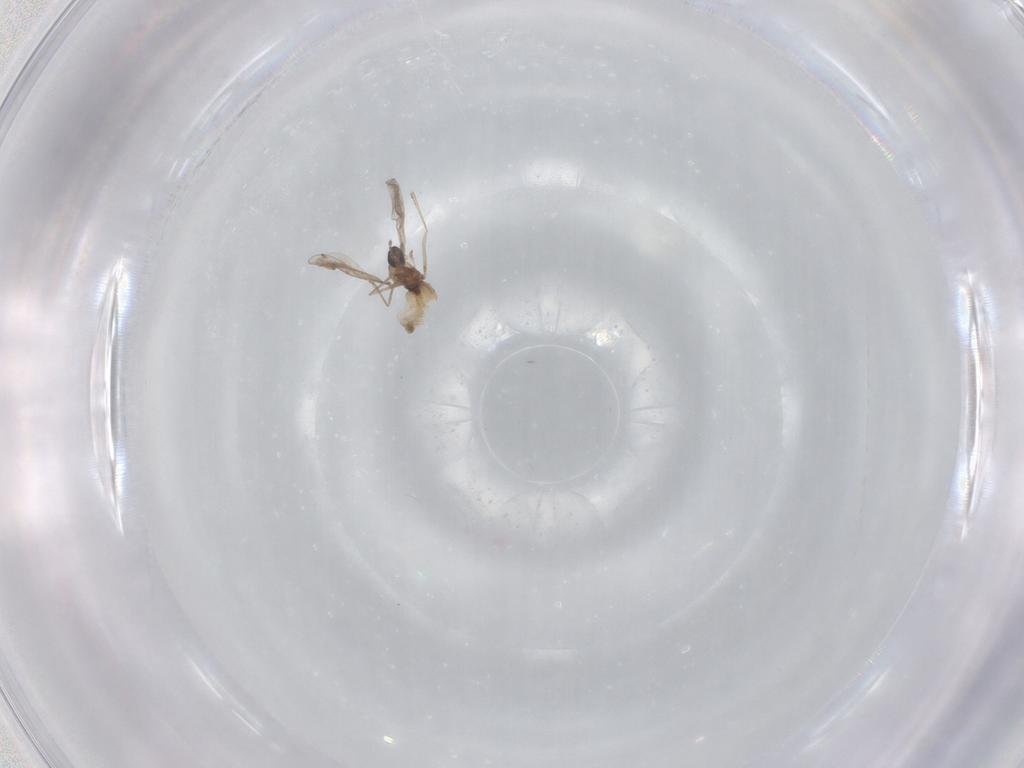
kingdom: Animalia
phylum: Arthropoda
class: Insecta
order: Diptera
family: Cecidomyiidae
